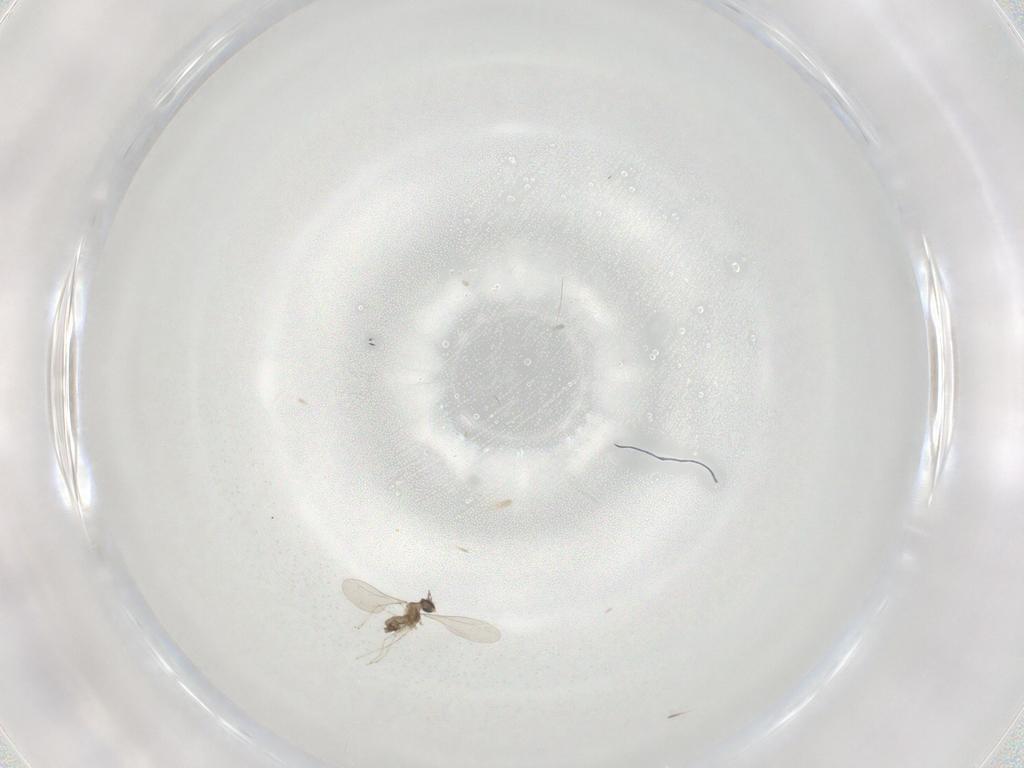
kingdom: Animalia
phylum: Arthropoda
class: Insecta
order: Diptera
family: Cecidomyiidae
